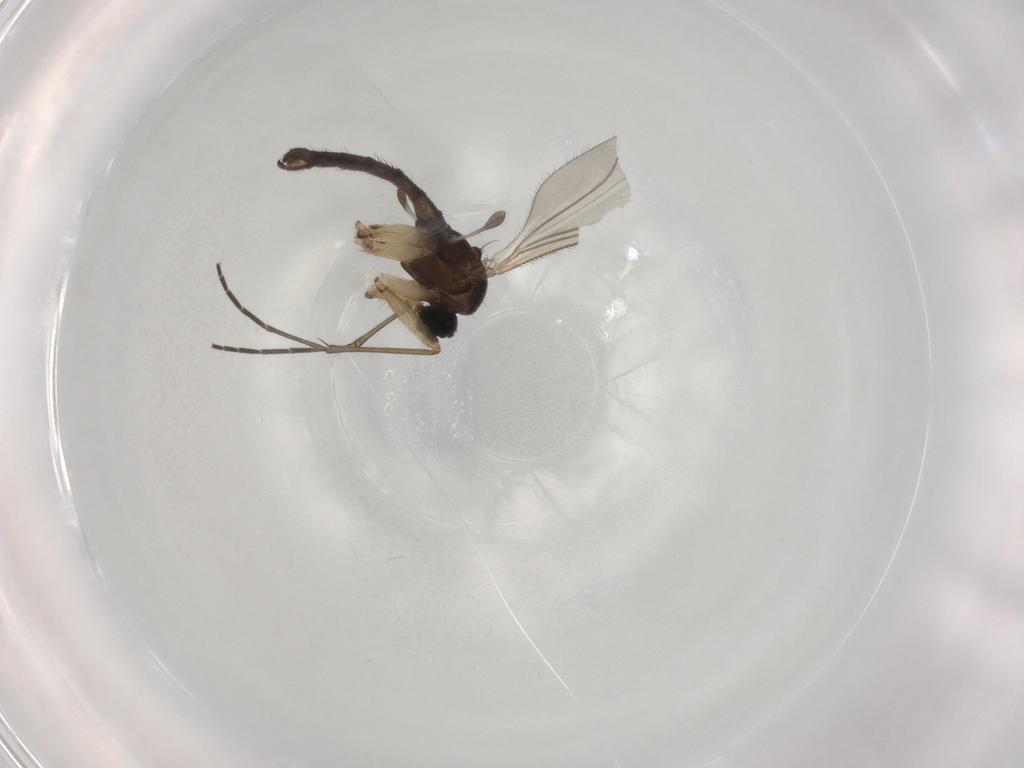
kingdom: Animalia
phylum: Arthropoda
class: Insecta
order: Diptera
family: Sciaridae
